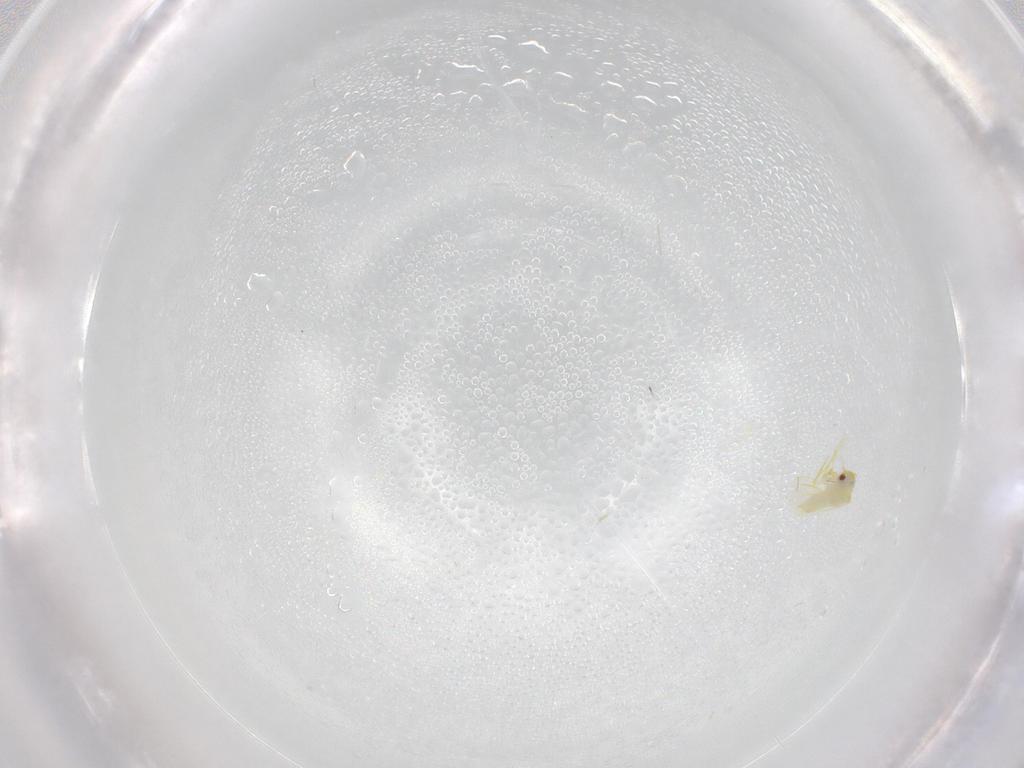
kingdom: Animalia
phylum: Arthropoda
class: Insecta
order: Hemiptera
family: Aleyrodidae
